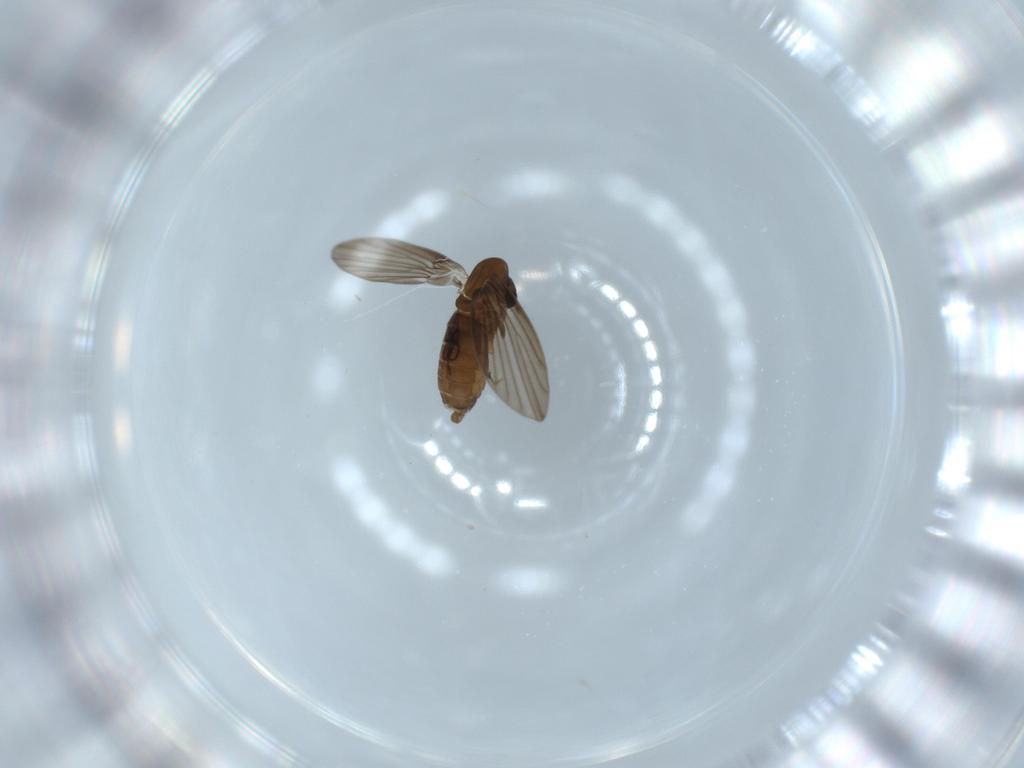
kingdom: Animalia
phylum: Arthropoda
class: Insecta
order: Diptera
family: Psychodidae
